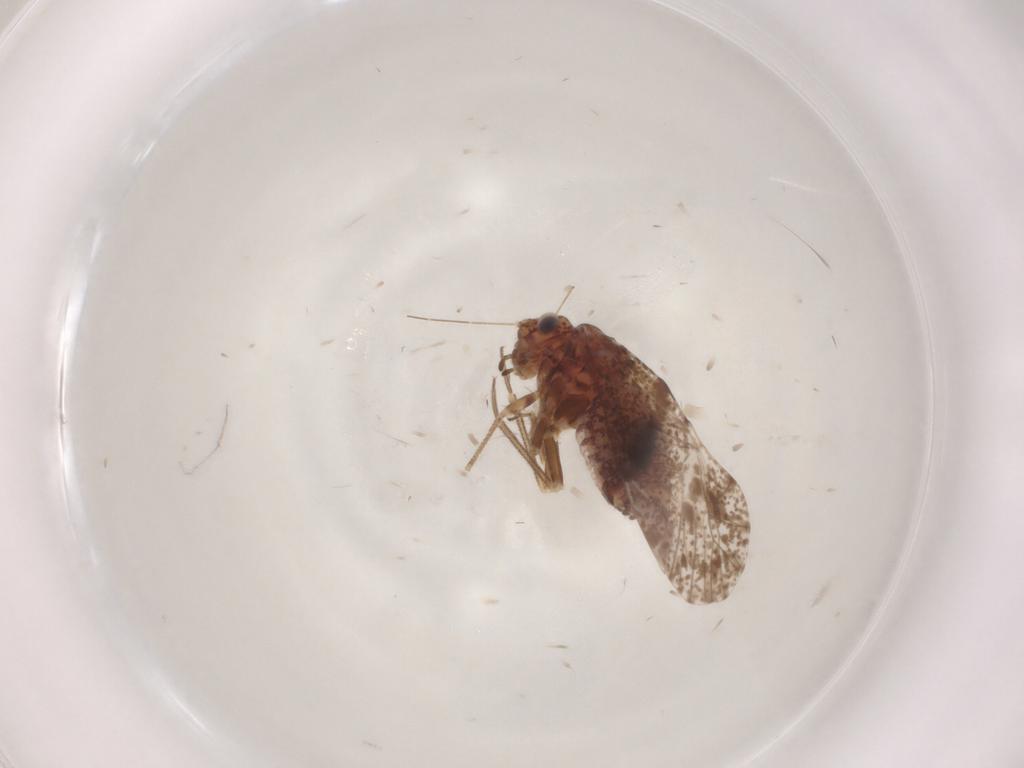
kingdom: Animalia
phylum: Arthropoda
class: Insecta
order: Psocodea
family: Psocidae
